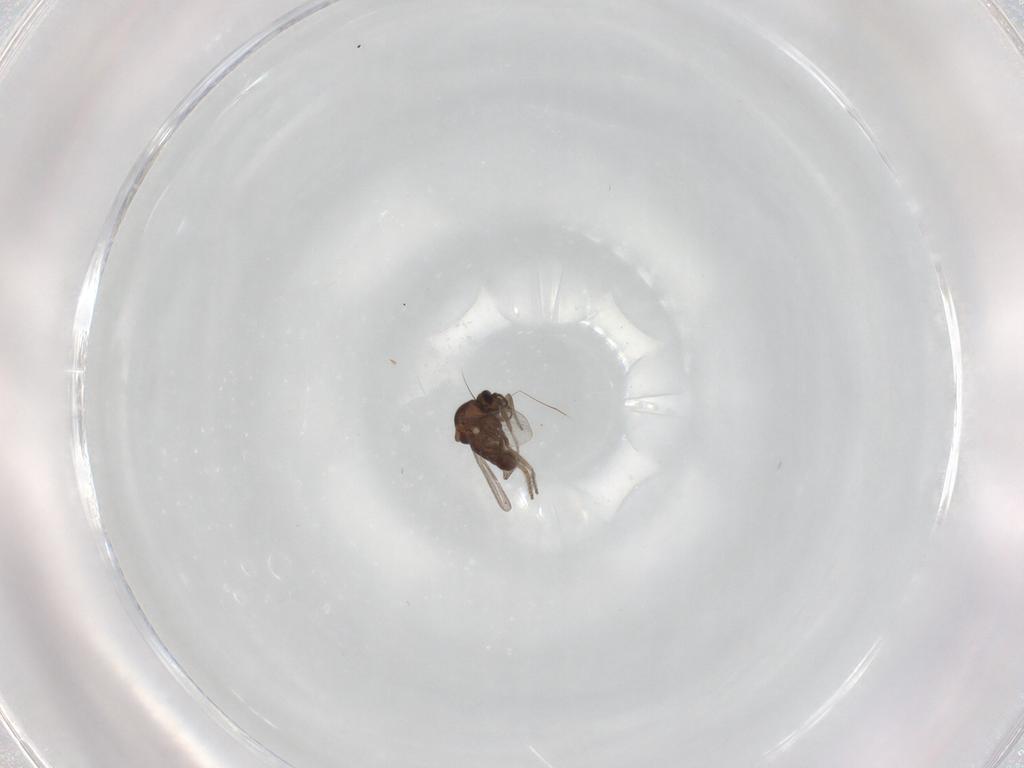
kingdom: Animalia
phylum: Arthropoda
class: Insecta
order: Diptera
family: Ceratopogonidae
